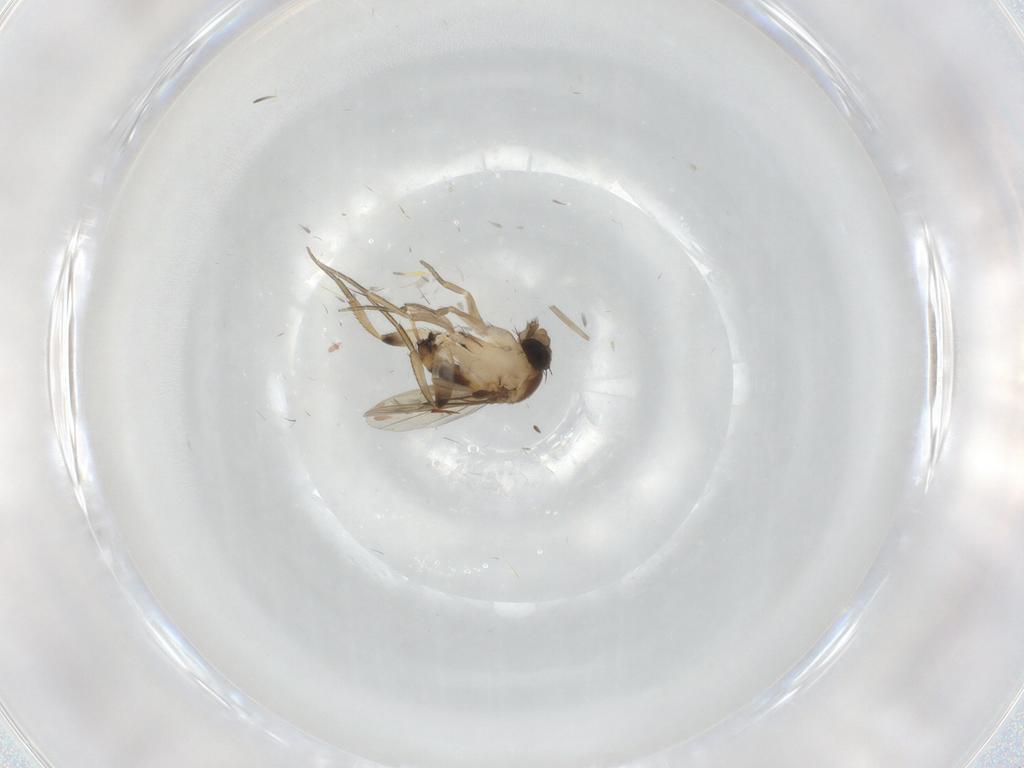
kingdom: Animalia
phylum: Arthropoda
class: Insecta
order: Diptera
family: Phoridae
